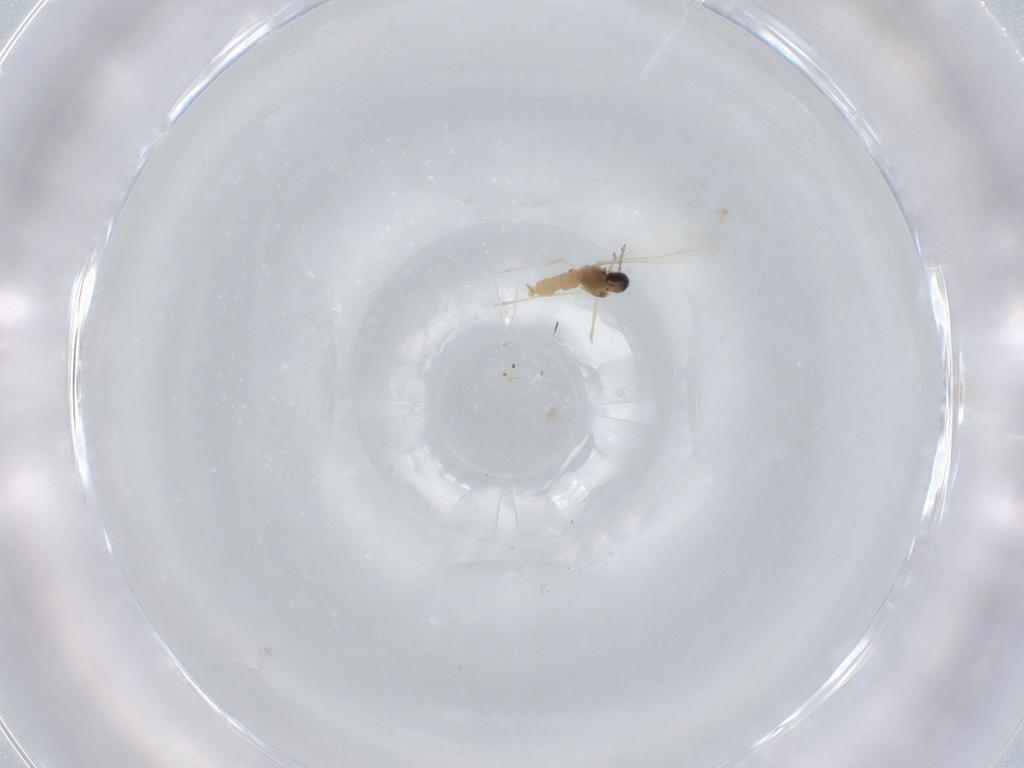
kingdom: Animalia
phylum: Arthropoda
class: Insecta
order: Diptera
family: Cecidomyiidae
